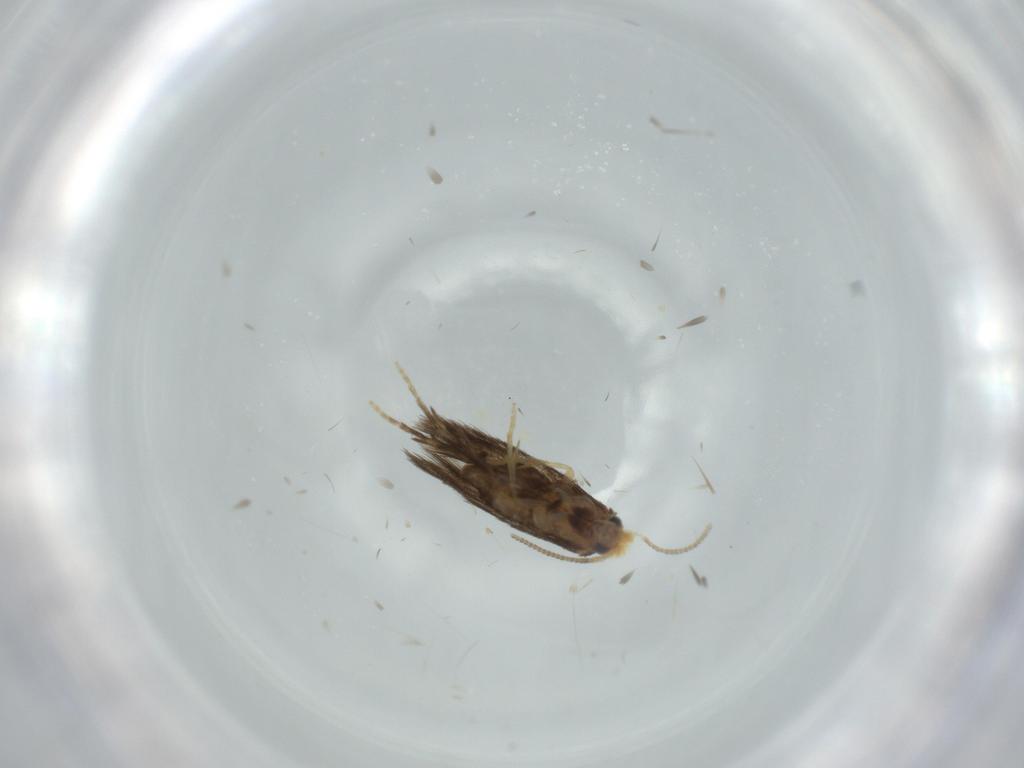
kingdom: Animalia
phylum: Arthropoda
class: Insecta
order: Lepidoptera
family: Nepticulidae
